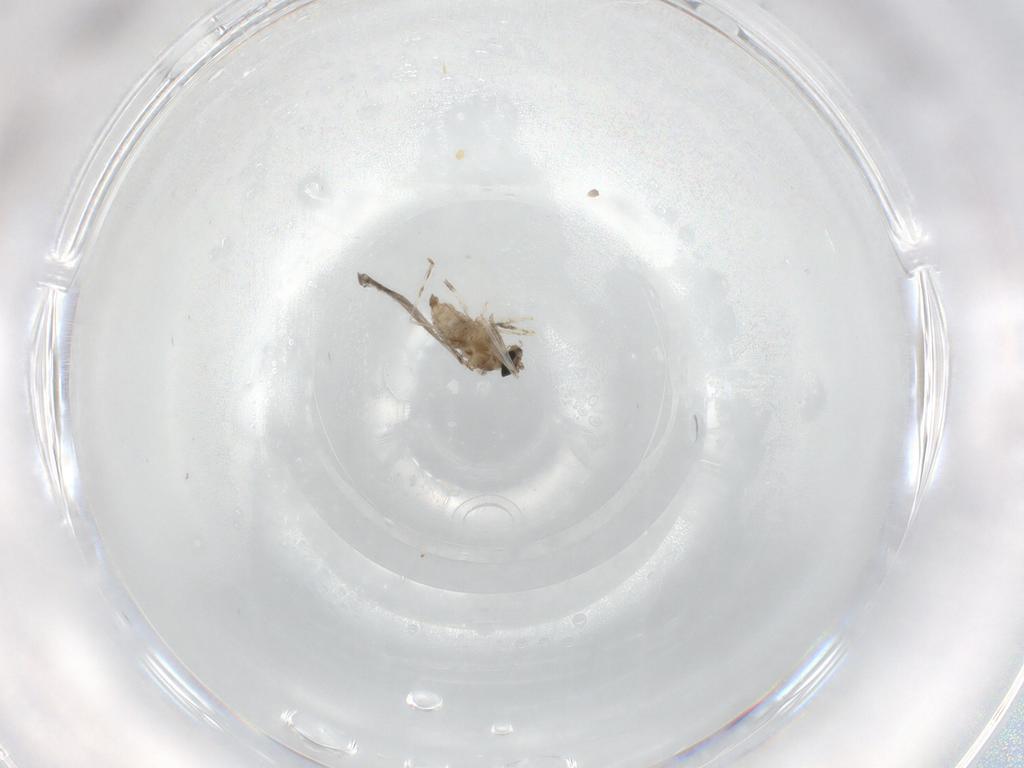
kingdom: Animalia
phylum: Arthropoda
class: Insecta
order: Diptera
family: Cecidomyiidae
